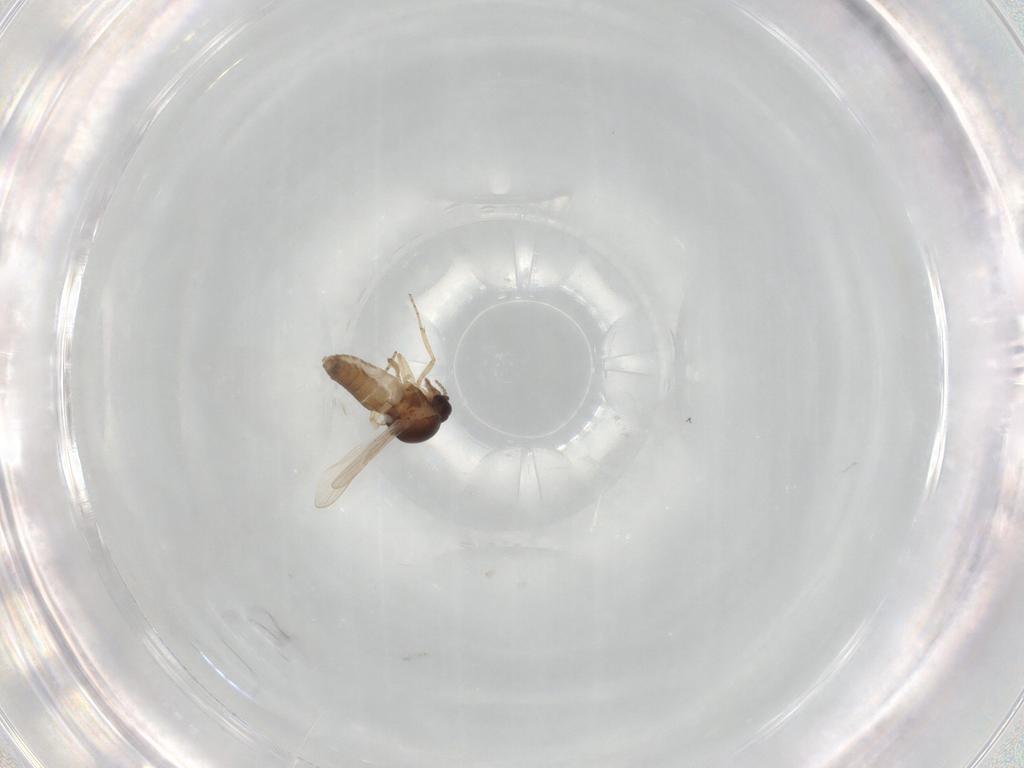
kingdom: Animalia
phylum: Arthropoda
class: Insecta
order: Diptera
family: Ceratopogonidae
